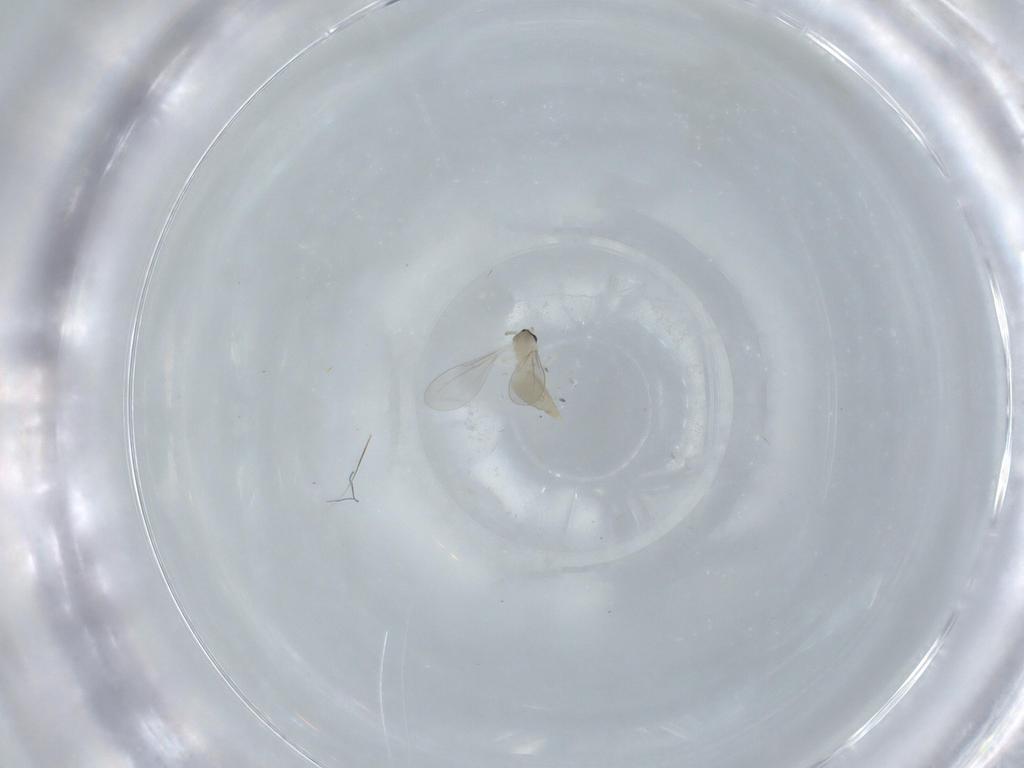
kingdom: Animalia
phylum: Arthropoda
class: Insecta
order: Diptera
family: Cecidomyiidae
